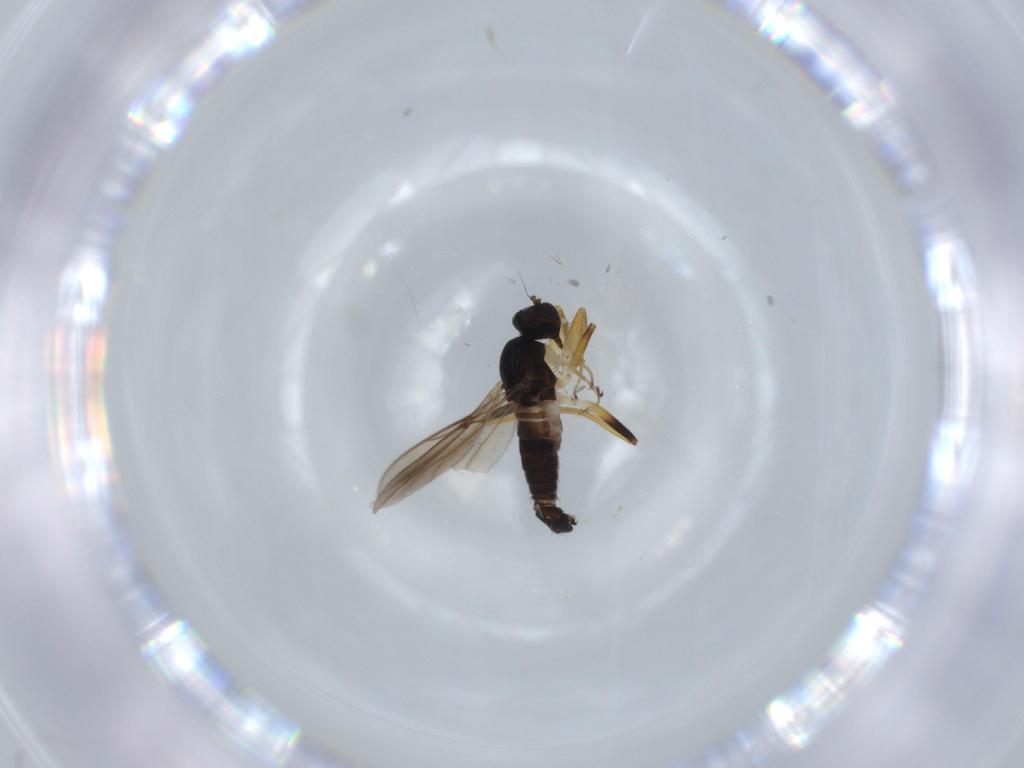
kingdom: Animalia
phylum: Arthropoda
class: Insecta
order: Diptera
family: Hybotidae
